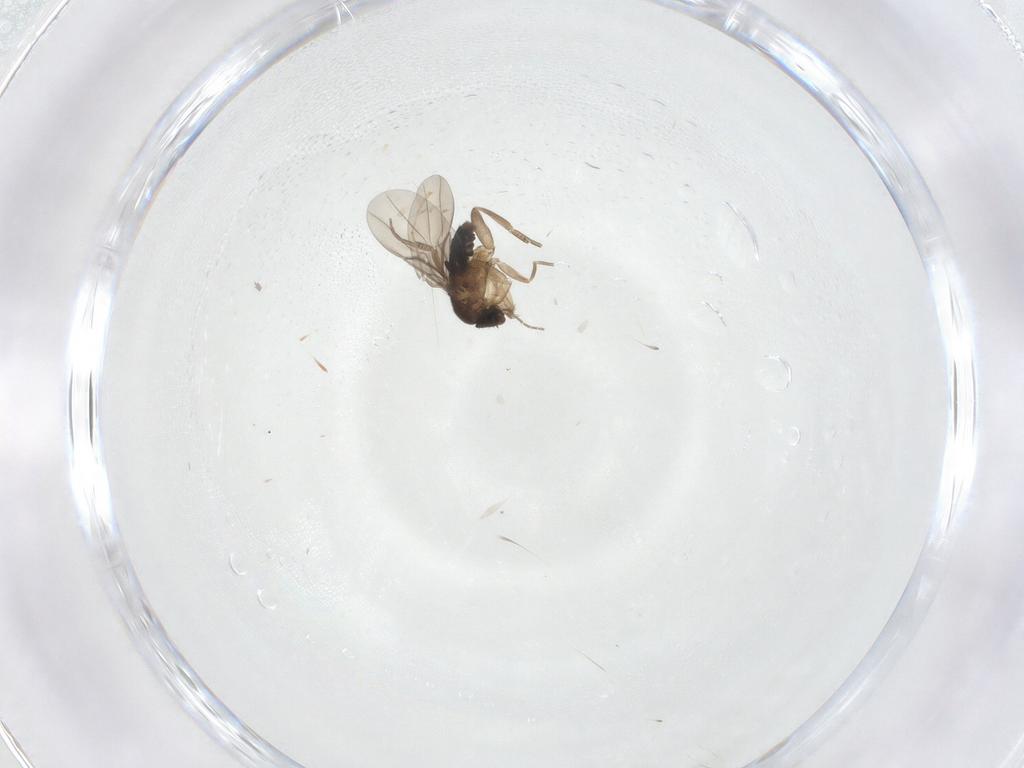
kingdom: Animalia
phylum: Arthropoda
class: Insecta
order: Diptera
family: Phoridae
